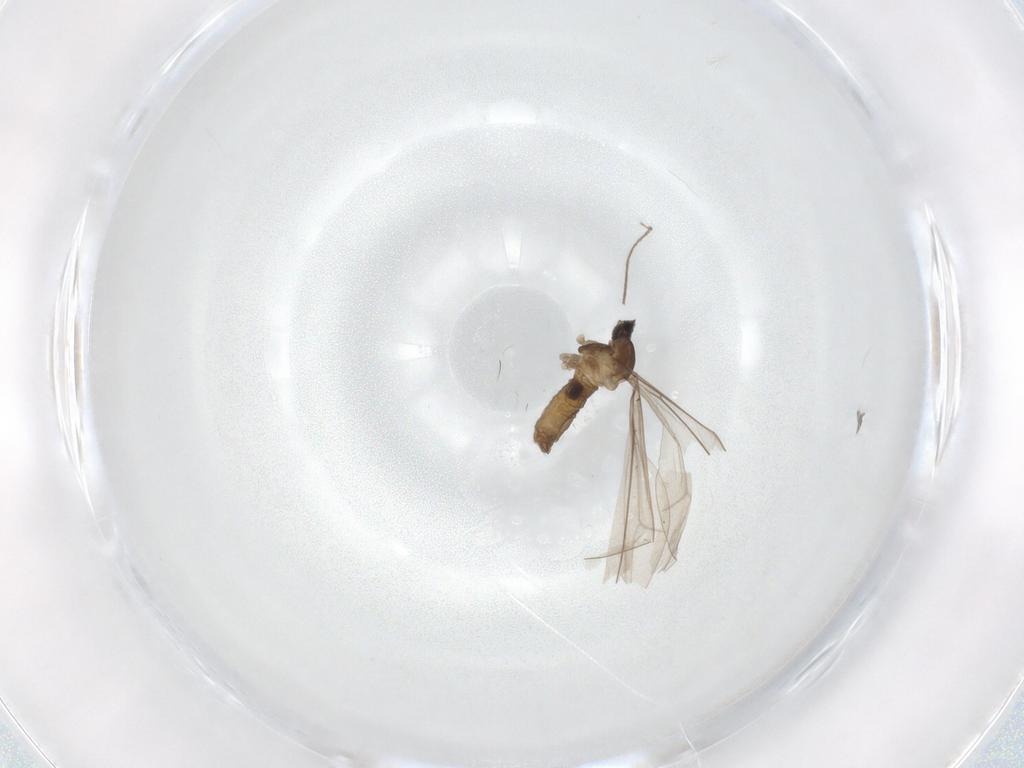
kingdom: Animalia
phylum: Arthropoda
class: Insecta
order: Diptera
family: Cecidomyiidae
